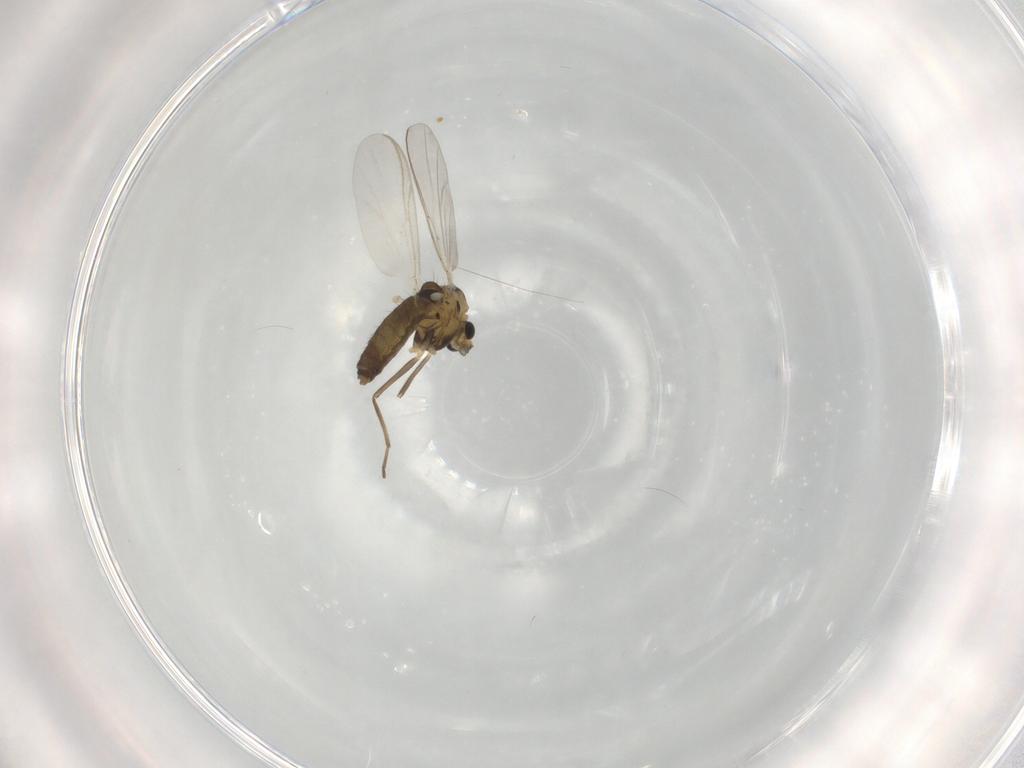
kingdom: Animalia
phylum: Arthropoda
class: Insecta
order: Diptera
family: Chironomidae
